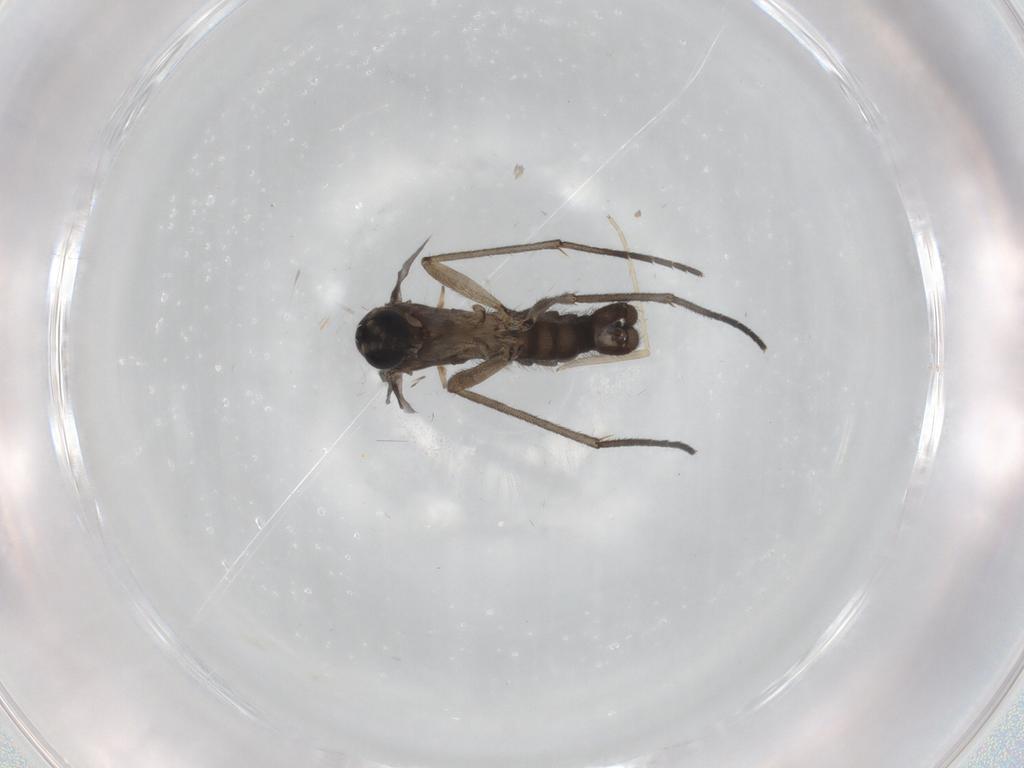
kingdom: Animalia
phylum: Arthropoda
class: Insecta
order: Diptera
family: Sciaridae
